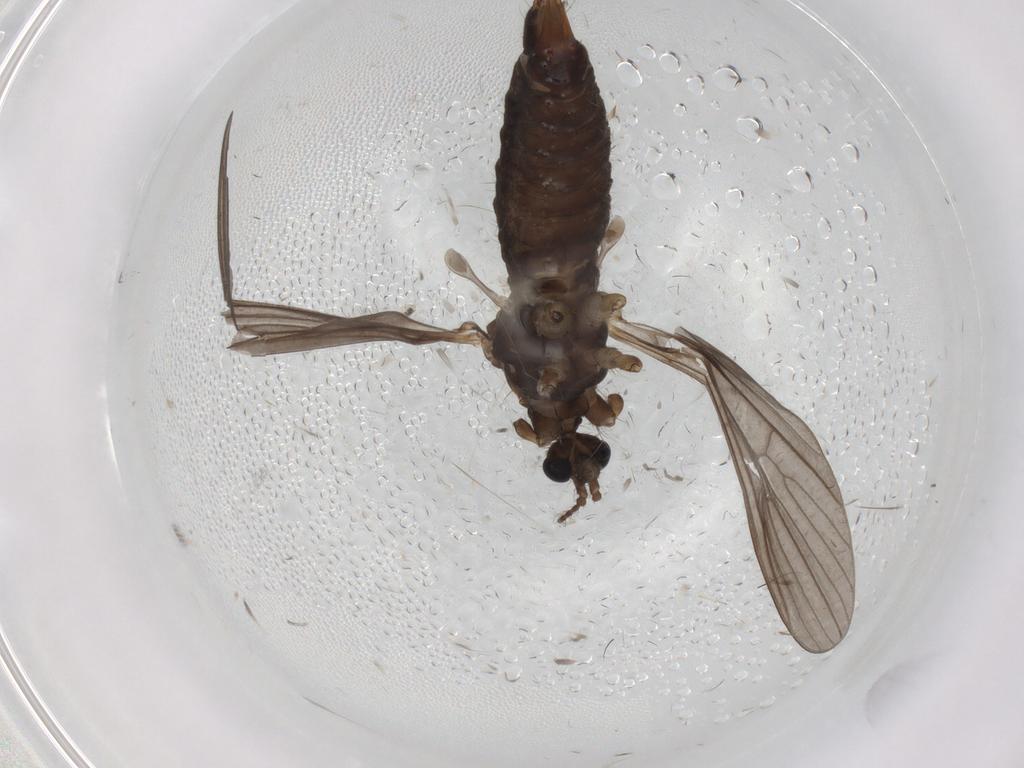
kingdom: Animalia
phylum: Arthropoda
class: Insecta
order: Diptera
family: Limoniidae
